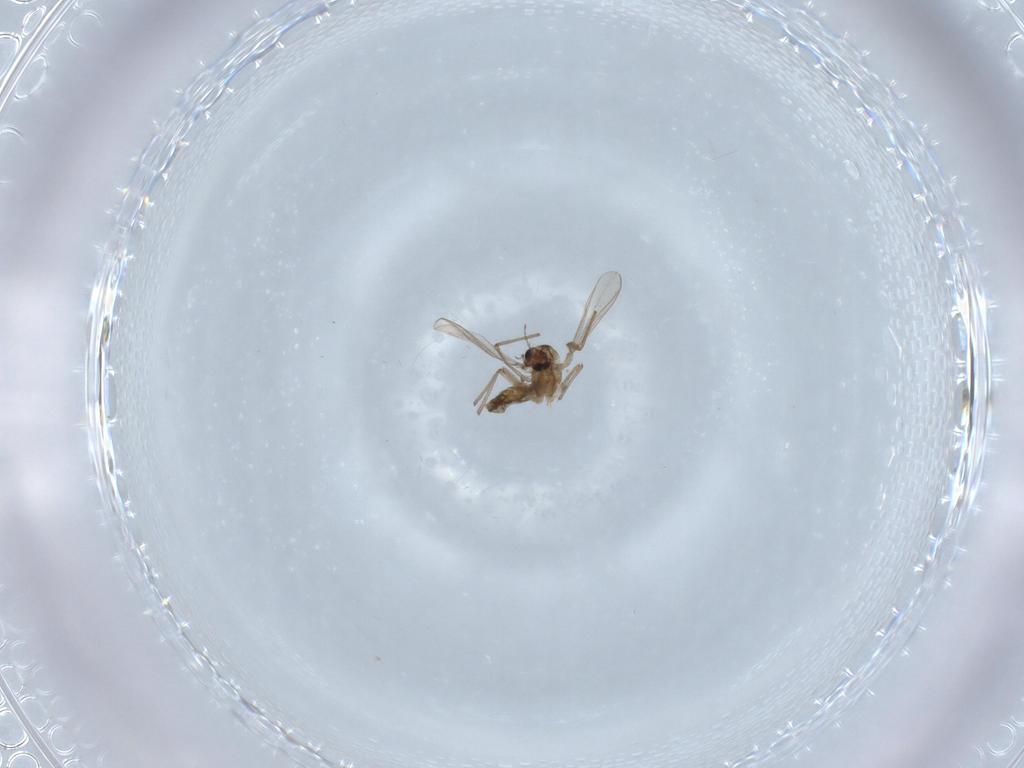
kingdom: Animalia
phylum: Arthropoda
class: Insecta
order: Diptera
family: Chironomidae
